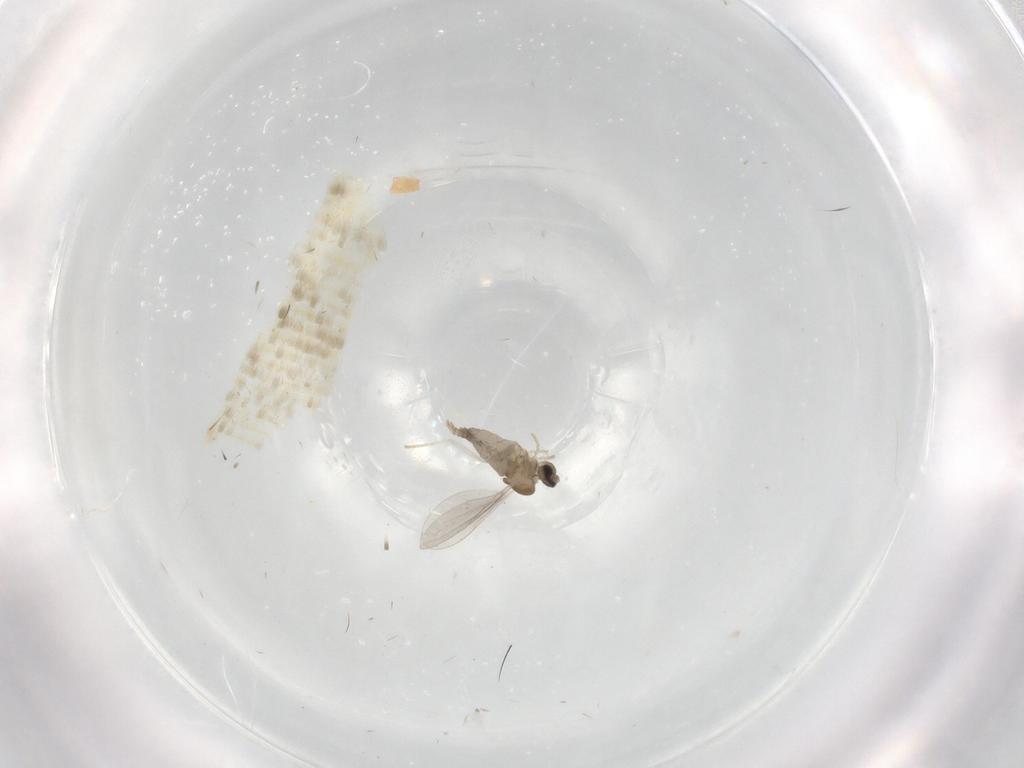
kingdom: Animalia
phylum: Arthropoda
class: Insecta
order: Diptera
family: Cecidomyiidae
